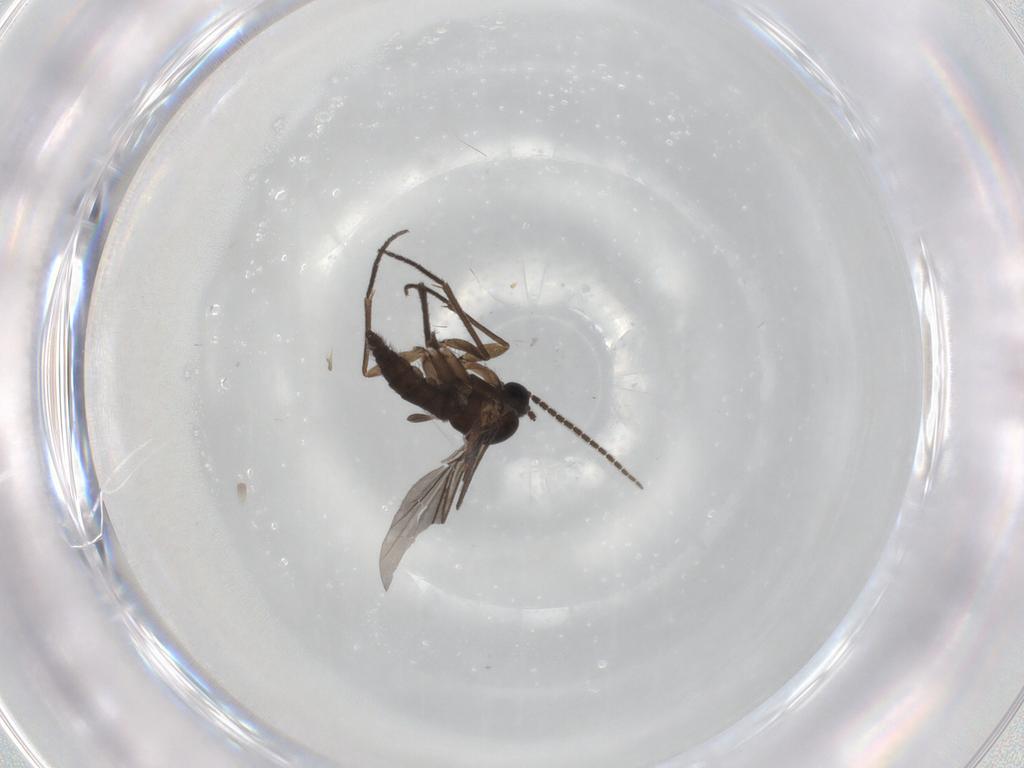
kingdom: Animalia
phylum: Arthropoda
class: Insecta
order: Diptera
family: Sciaridae
